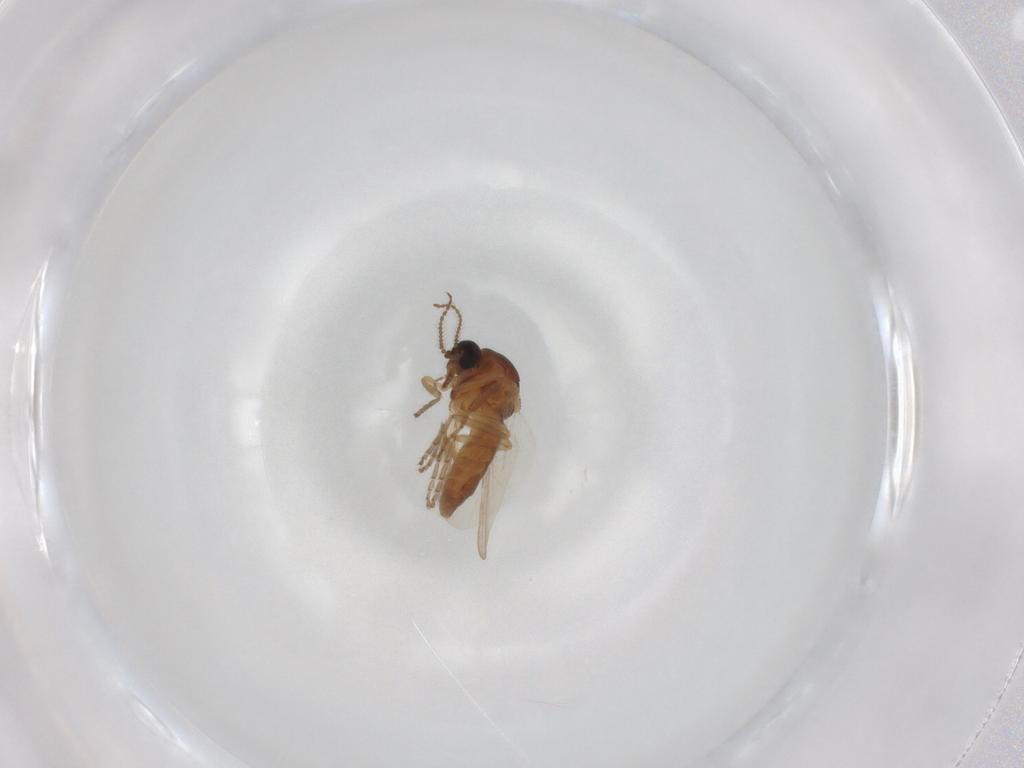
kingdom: Animalia
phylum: Arthropoda
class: Insecta
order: Diptera
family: Ceratopogonidae
